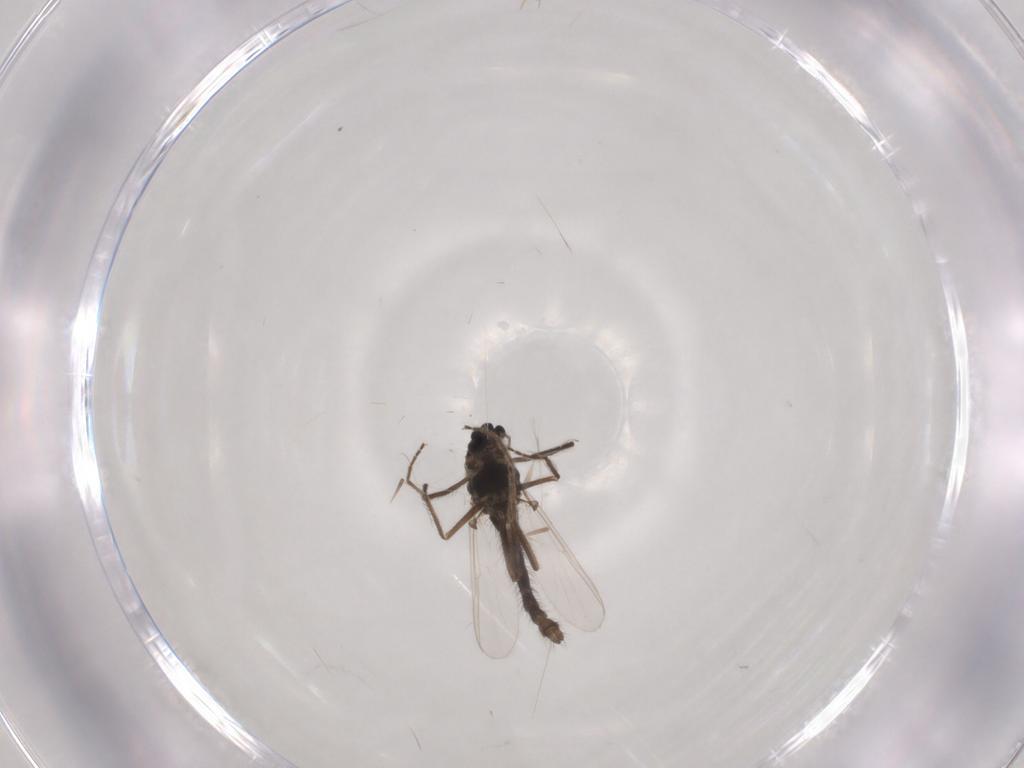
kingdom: Animalia
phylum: Arthropoda
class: Insecta
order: Diptera
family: Chironomidae
